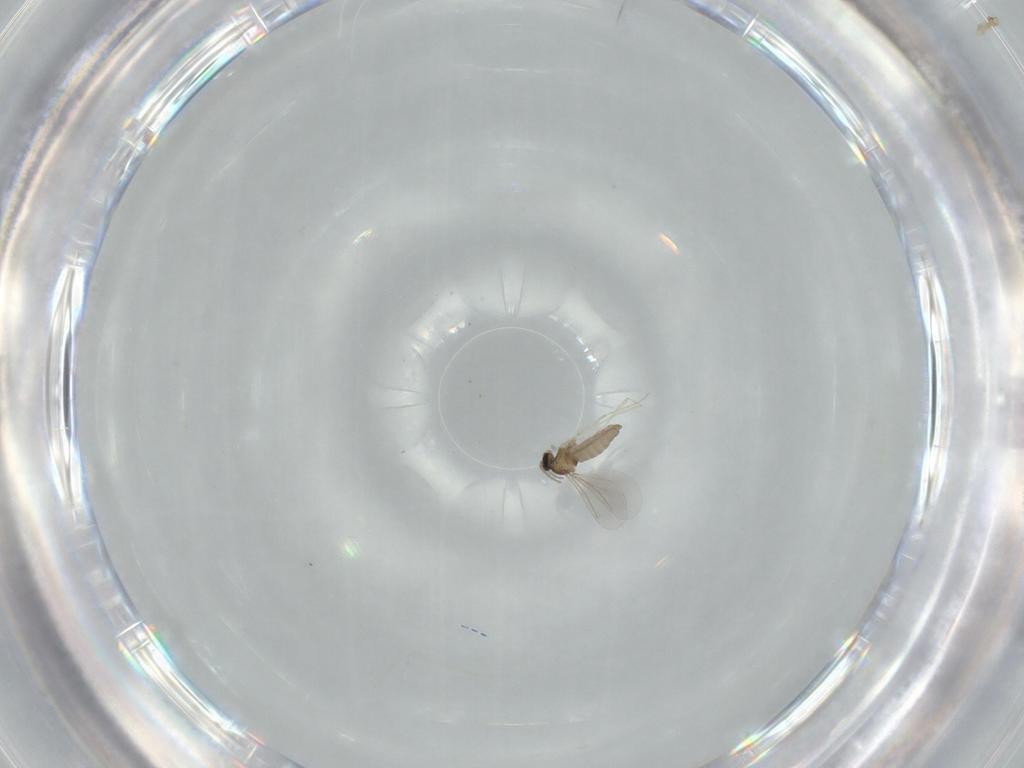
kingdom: Animalia
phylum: Arthropoda
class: Insecta
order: Diptera
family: Cecidomyiidae
